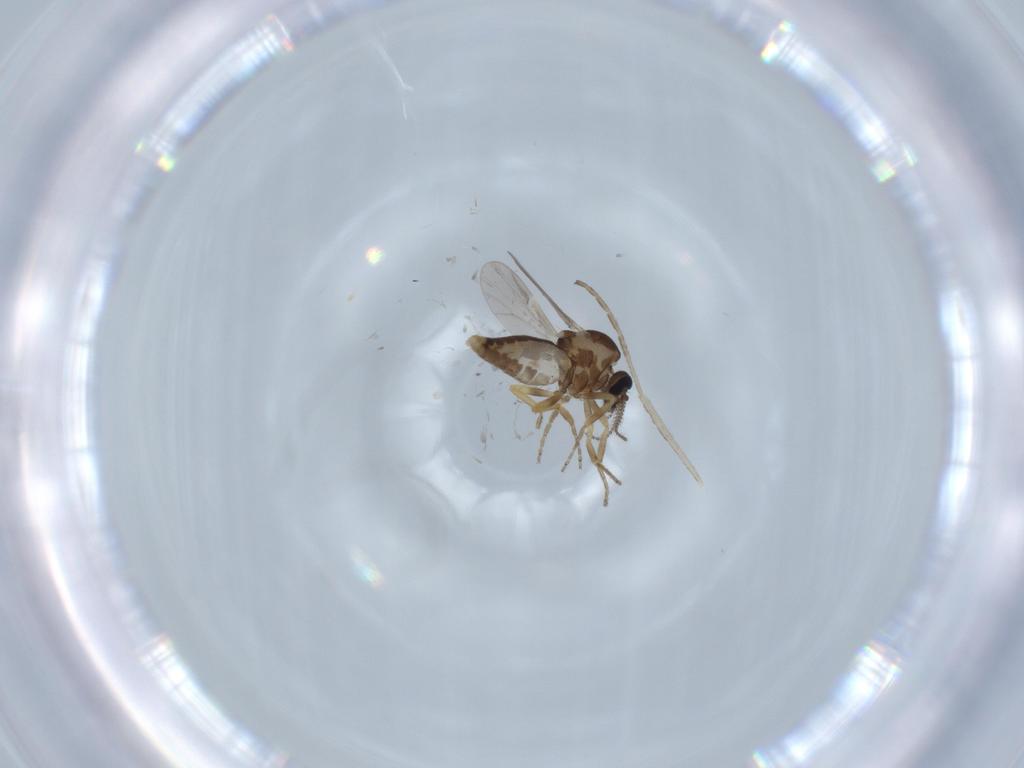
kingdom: Animalia
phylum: Arthropoda
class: Insecta
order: Diptera
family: Cecidomyiidae
